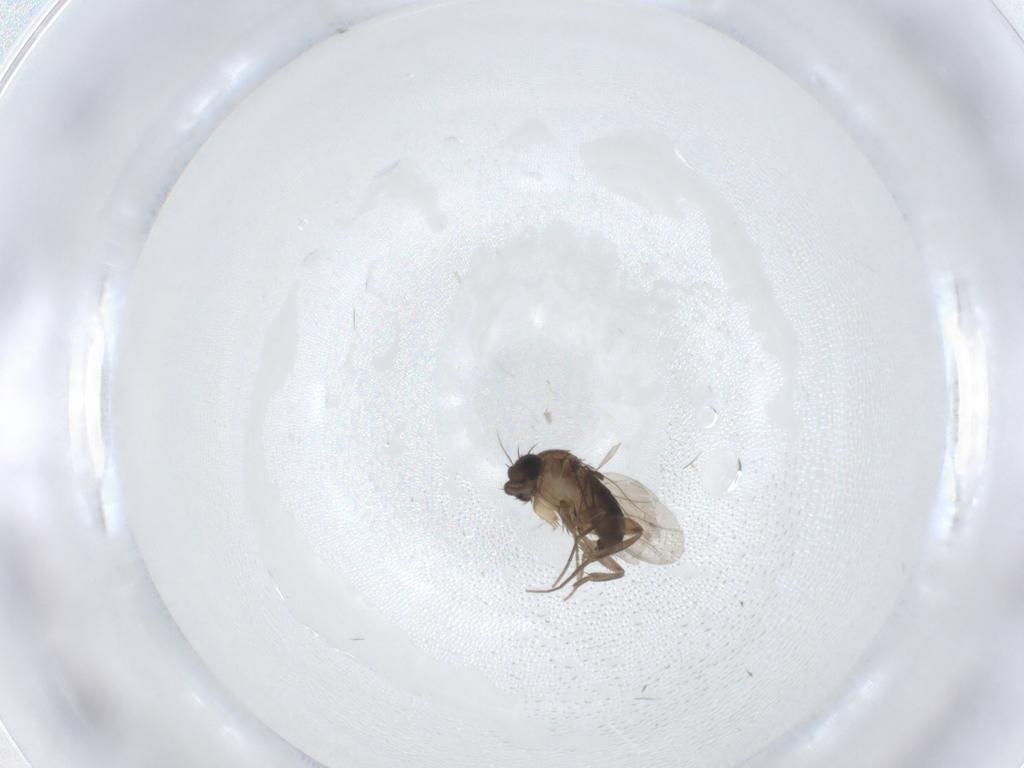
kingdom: Animalia
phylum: Arthropoda
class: Insecta
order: Diptera
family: Phoridae
